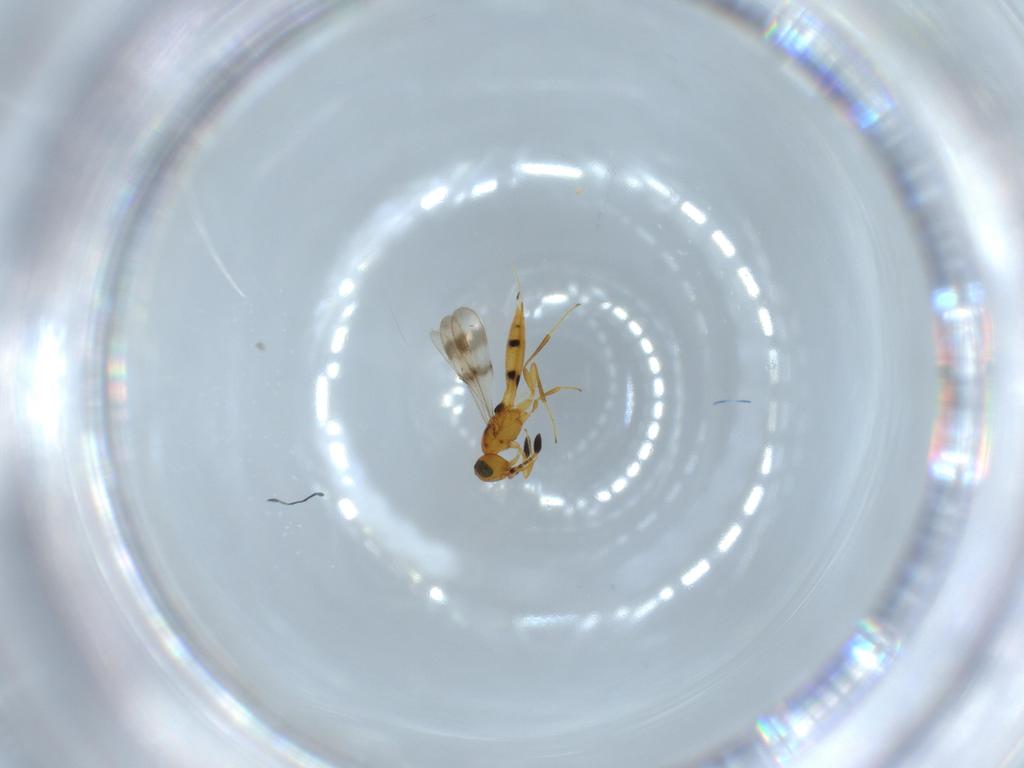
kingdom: Animalia
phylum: Arthropoda
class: Insecta
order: Hymenoptera
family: Scelionidae
